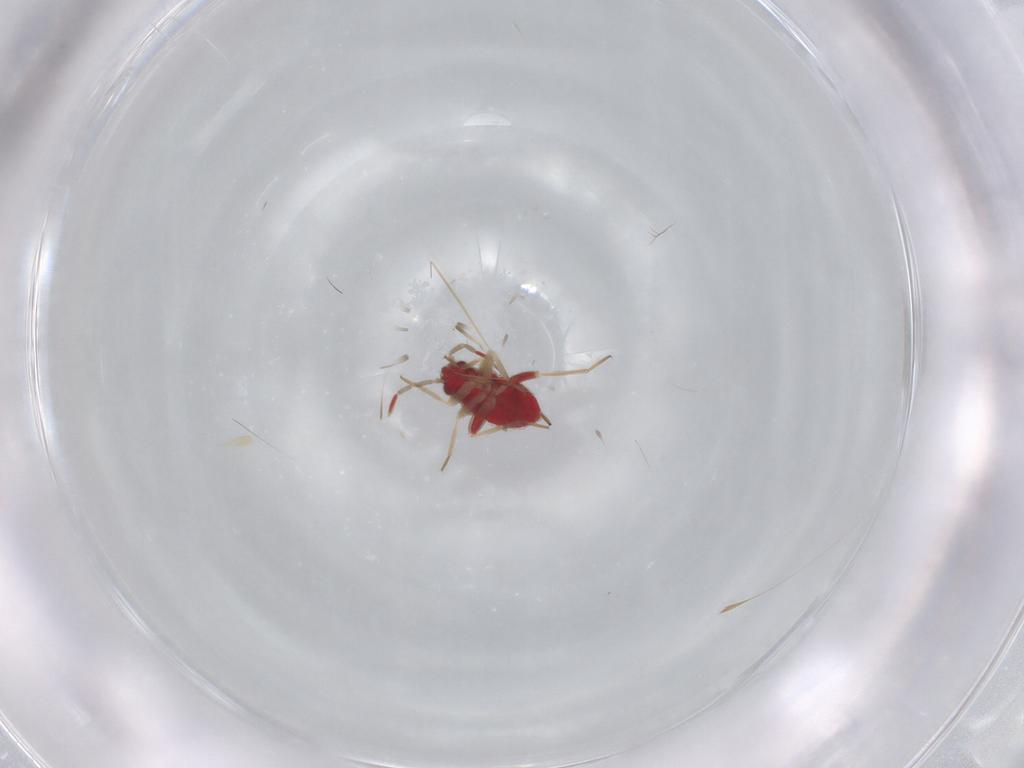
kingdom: Animalia
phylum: Arthropoda
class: Insecta
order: Hemiptera
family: Miridae
